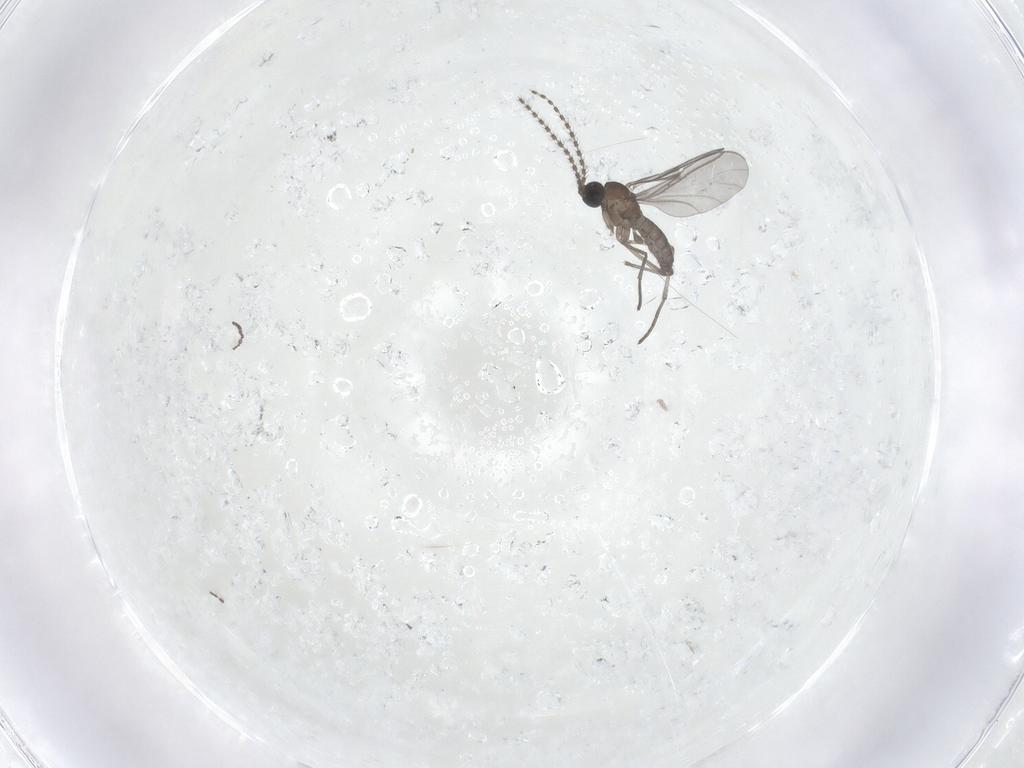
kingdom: Animalia
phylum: Arthropoda
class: Insecta
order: Diptera
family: Cecidomyiidae
